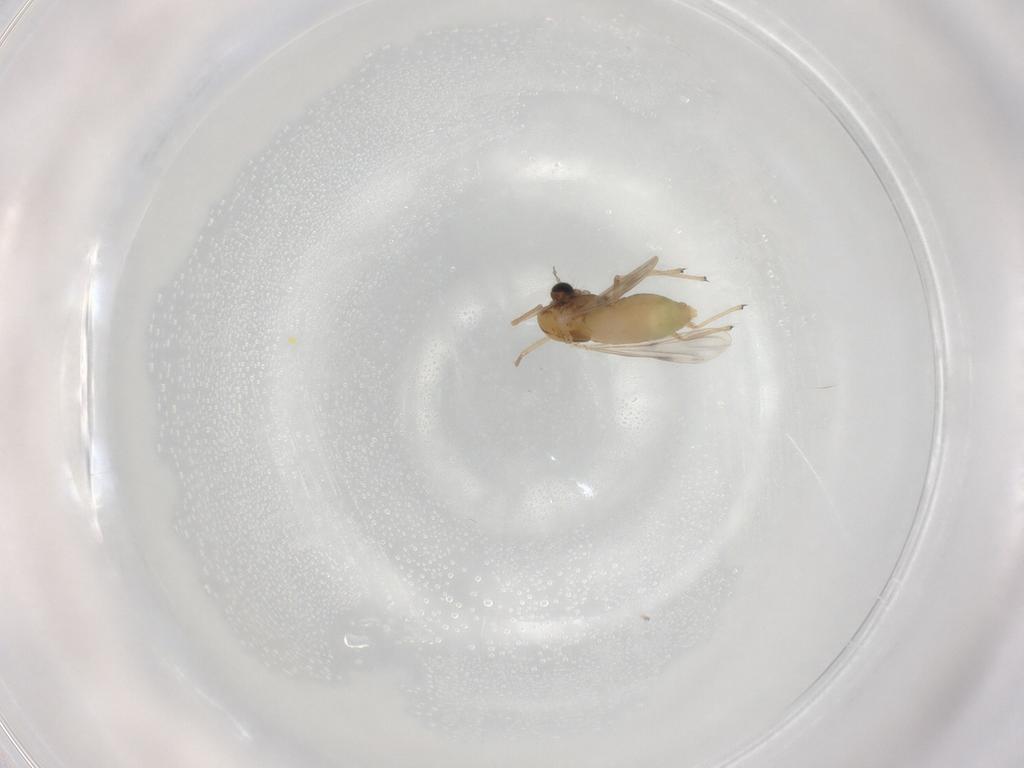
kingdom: Animalia
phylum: Arthropoda
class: Insecta
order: Diptera
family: Chironomidae
